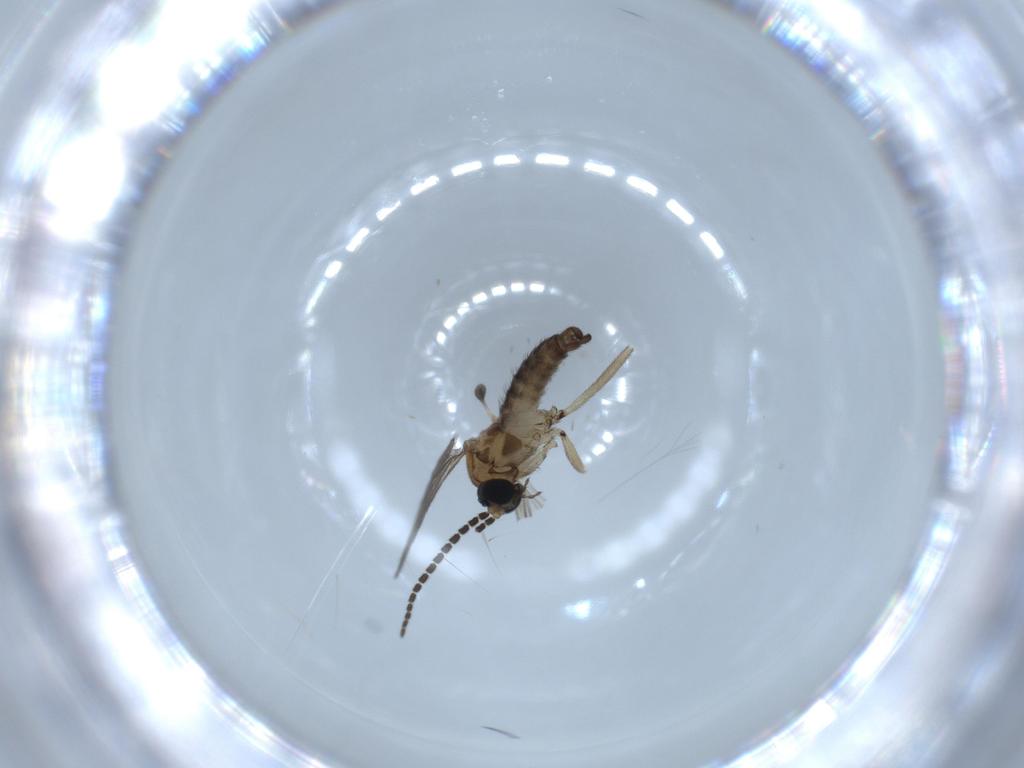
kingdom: Animalia
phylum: Arthropoda
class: Insecta
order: Diptera
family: Sciaridae
